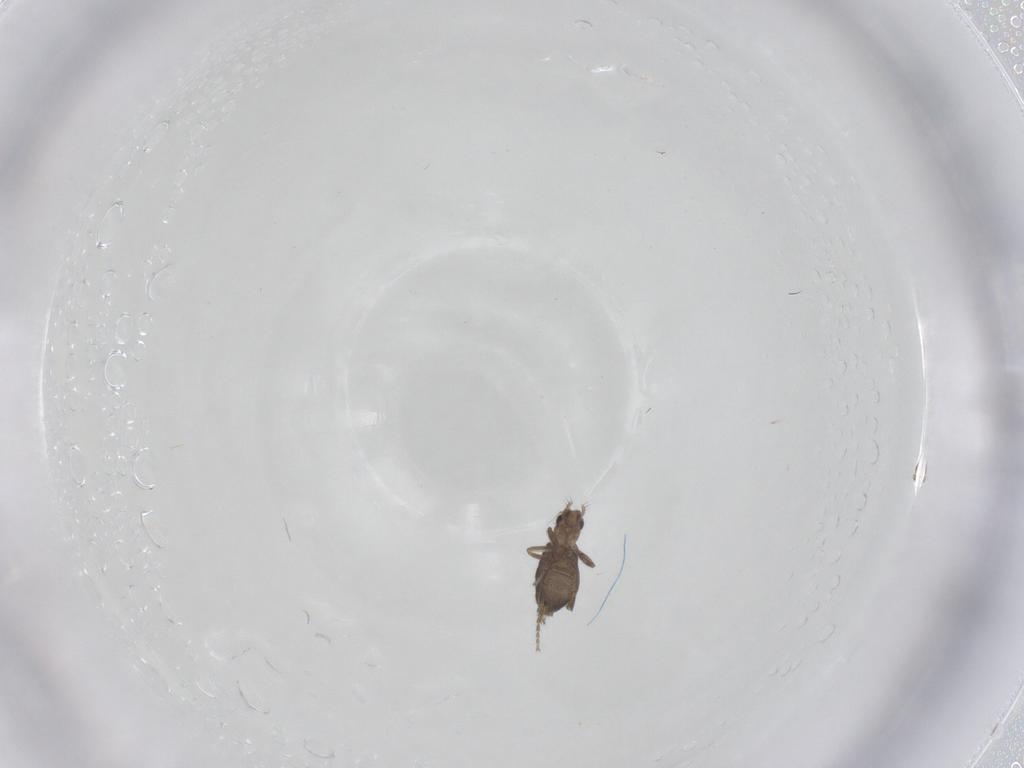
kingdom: Animalia
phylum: Arthropoda
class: Insecta
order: Diptera
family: Phoridae
